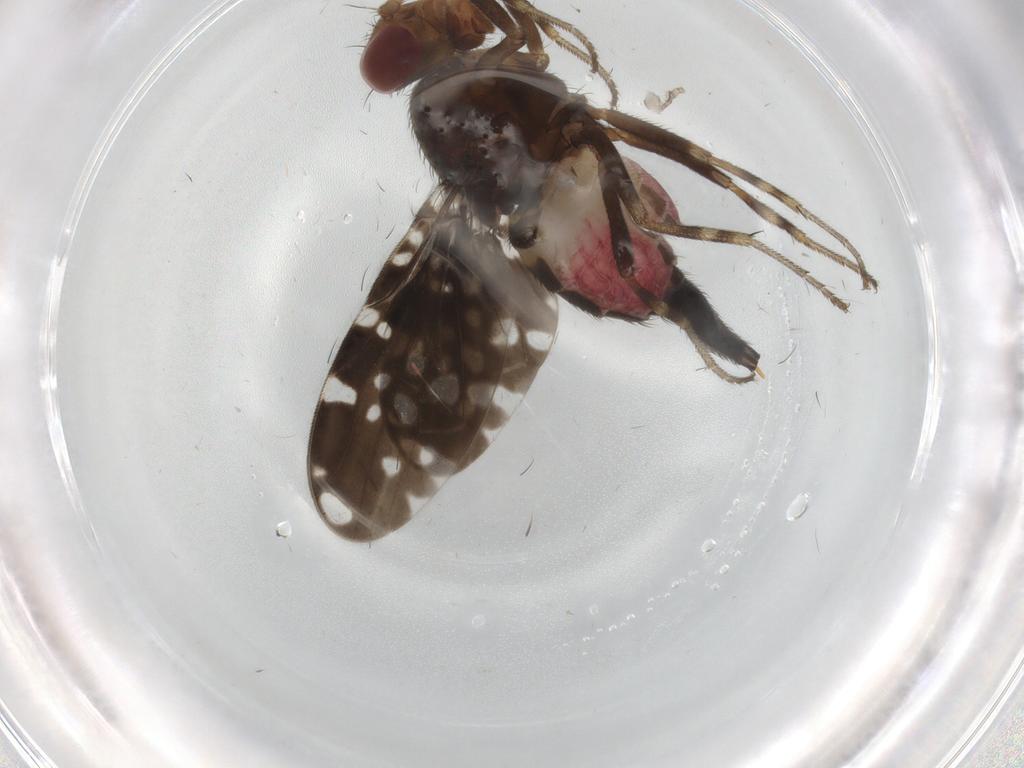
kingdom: Animalia
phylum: Arthropoda
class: Insecta
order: Diptera
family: Ulidiidae
